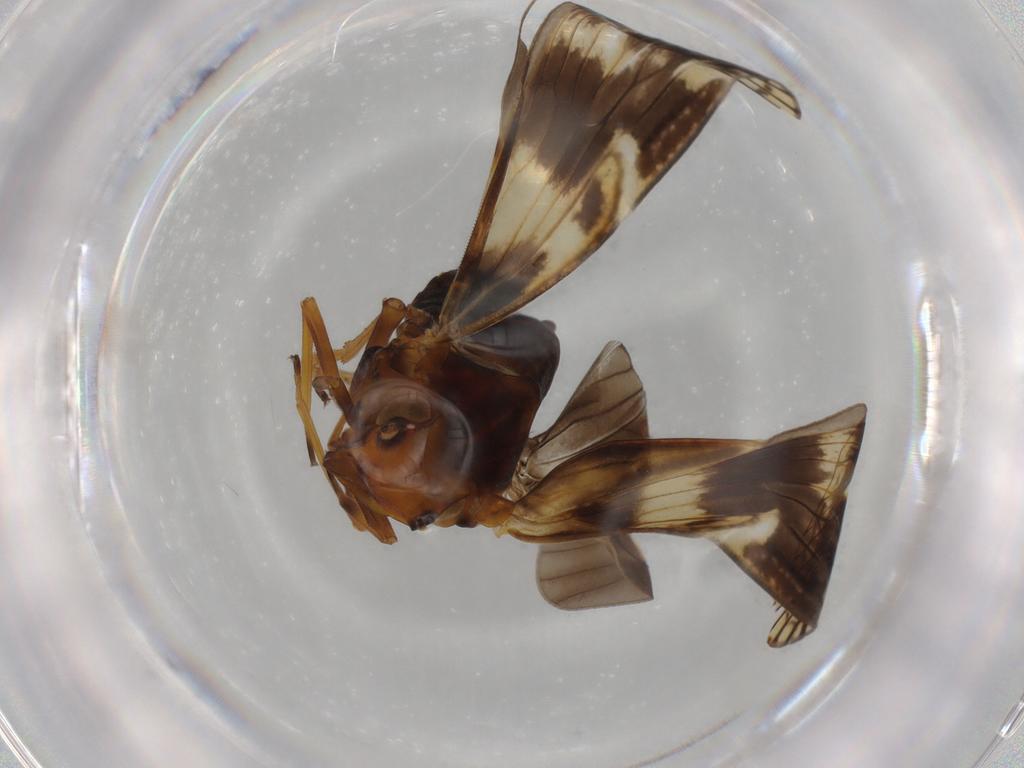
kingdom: Animalia
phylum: Arthropoda
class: Insecta
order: Hemiptera
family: Cixiidae
